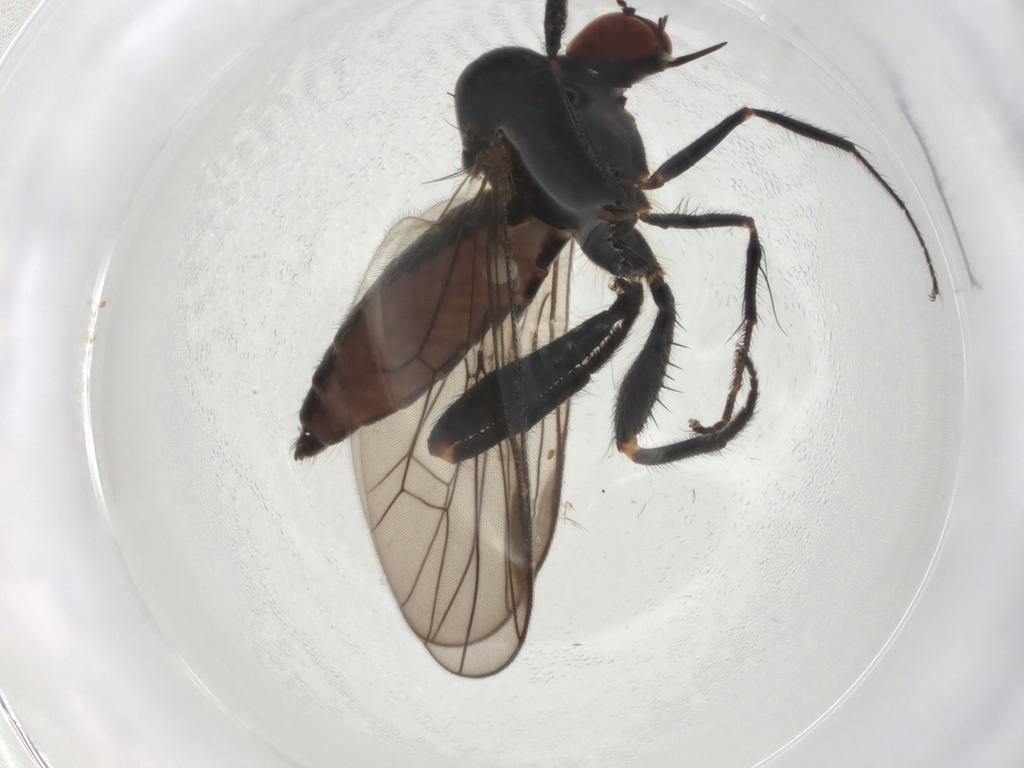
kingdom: Animalia
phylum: Arthropoda
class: Insecta
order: Diptera
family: Hybotidae
